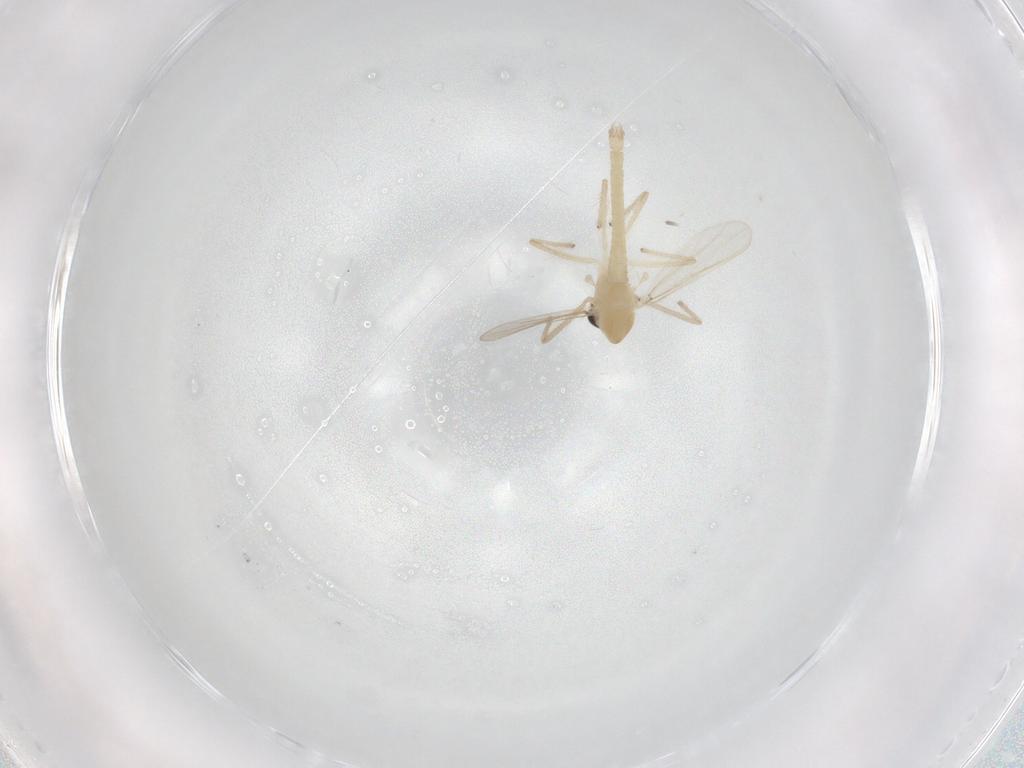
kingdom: Animalia
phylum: Arthropoda
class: Insecta
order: Diptera
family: Chironomidae
